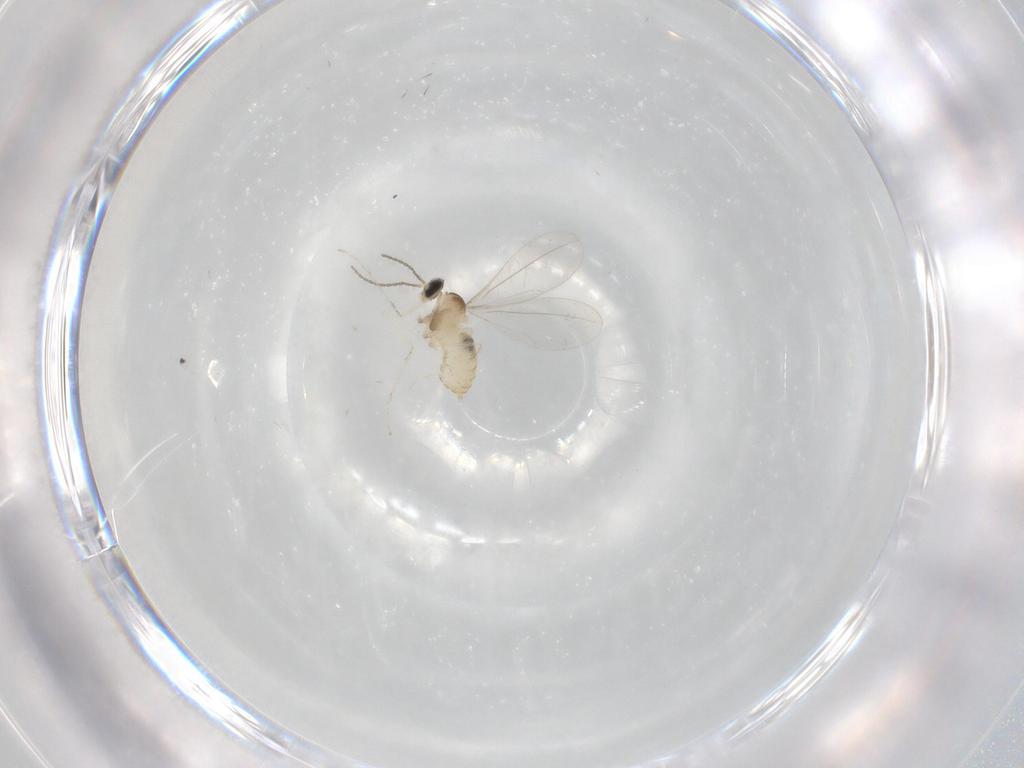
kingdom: Animalia
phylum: Arthropoda
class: Insecta
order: Diptera
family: Cecidomyiidae
